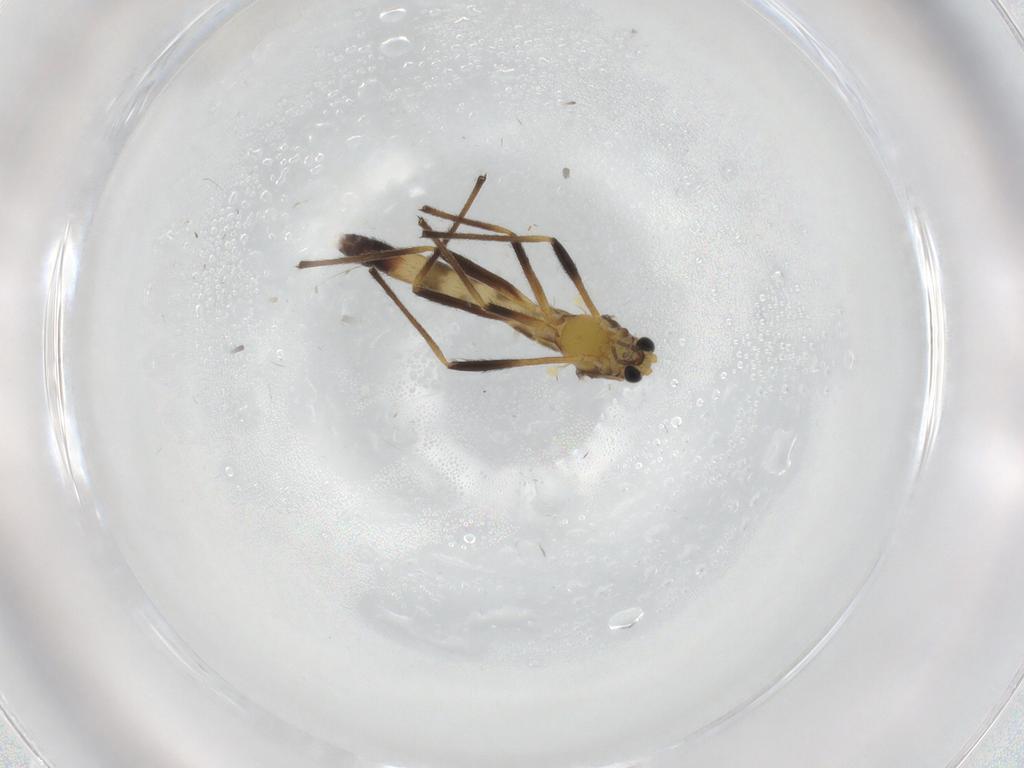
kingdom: Animalia
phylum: Arthropoda
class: Insecta
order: Diptera
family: Chironomidae
